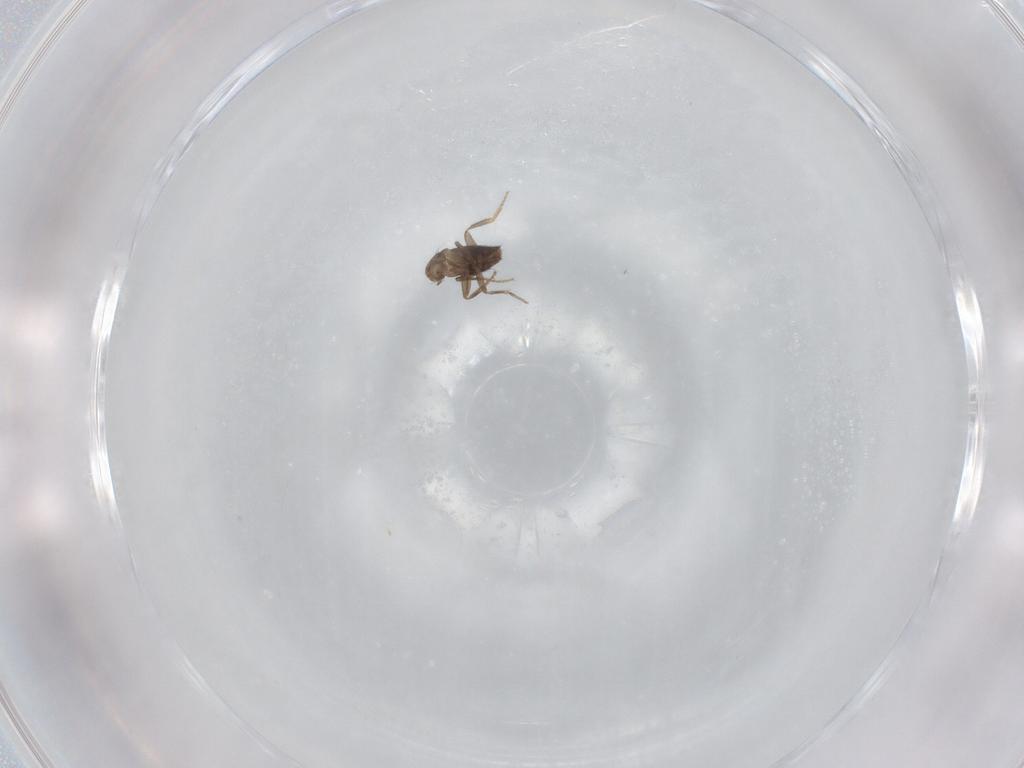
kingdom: Animalia
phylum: Arthropoda
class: Insecta
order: Diptera
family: Phoridae
